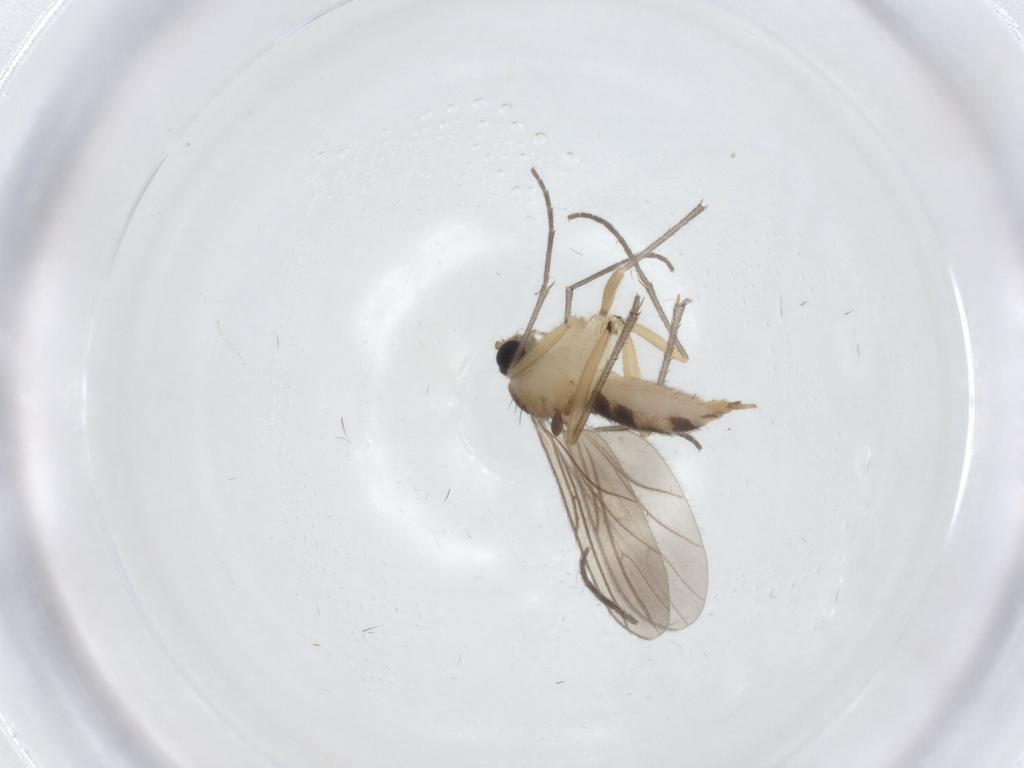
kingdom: Animalia
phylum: Arthropoda
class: Insecta
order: Diptera
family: Sciaridae
